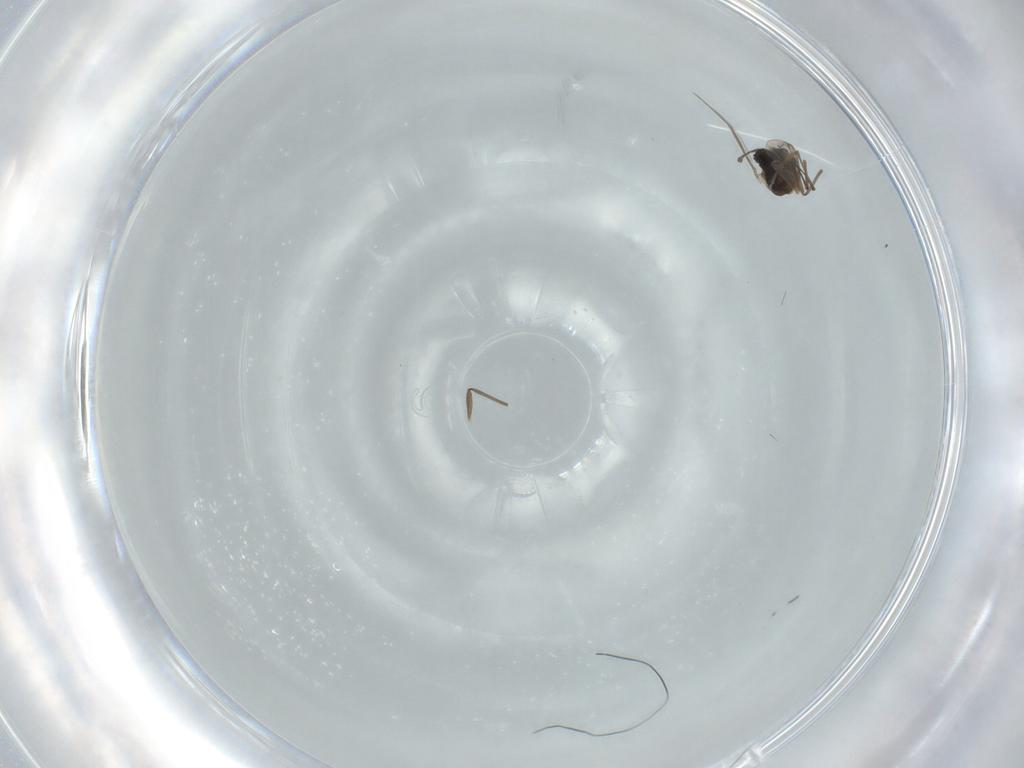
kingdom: Animalia
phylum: Arthropoda
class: Insecta
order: Diptera
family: Chironomidae
